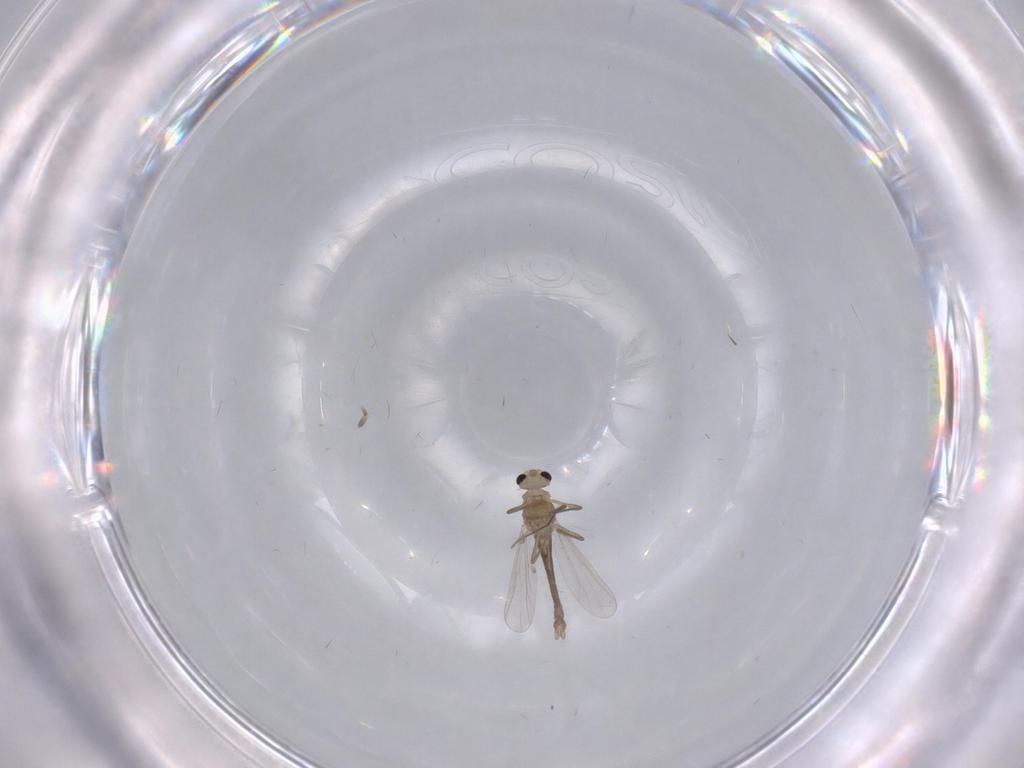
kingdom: Animalia
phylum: Arthropoda
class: Insecta
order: Diptera
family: Chironomidae
